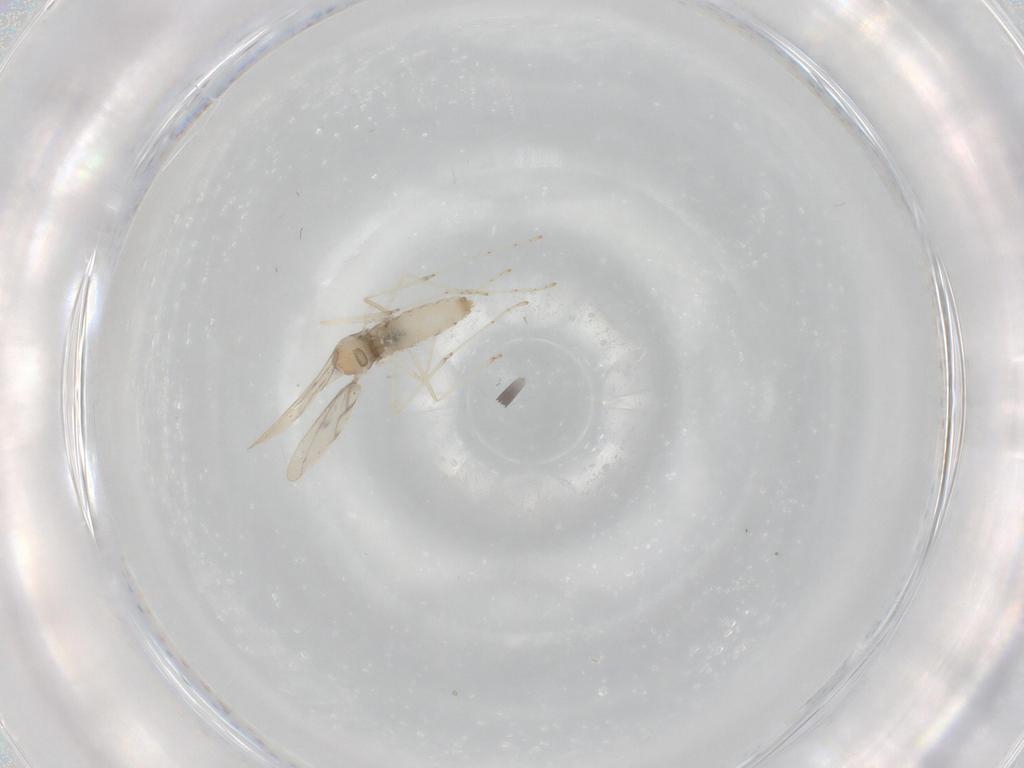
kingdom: Animalia
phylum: Arthropoda
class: Insecta
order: Diptera
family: Cecidomyiidae
